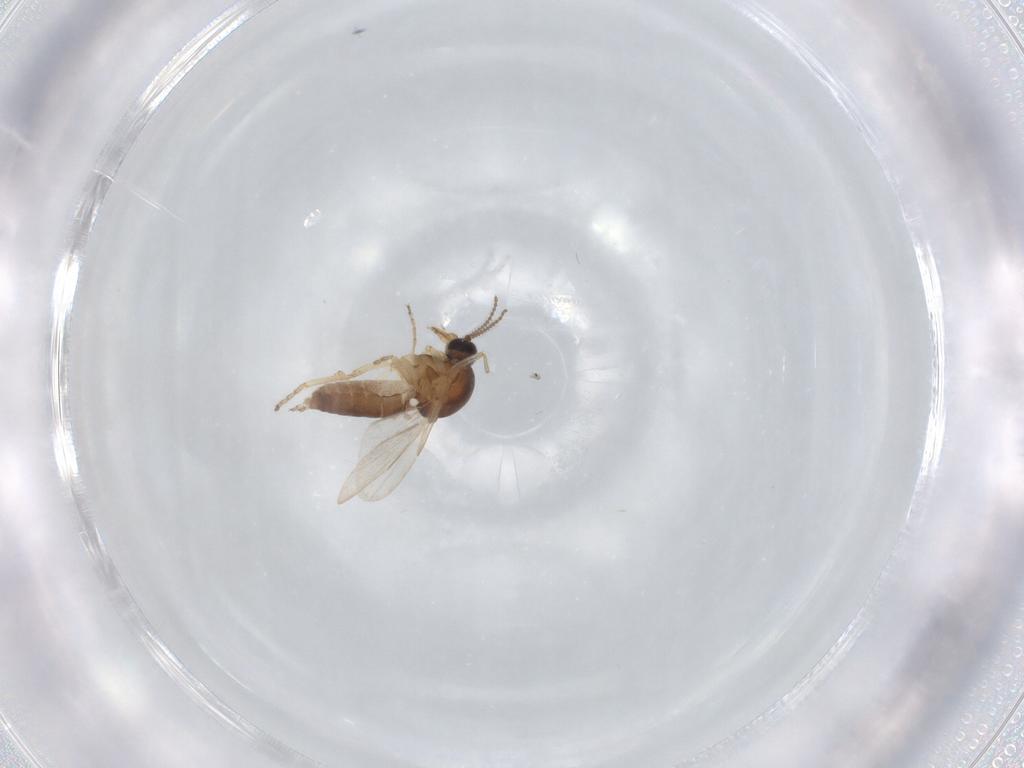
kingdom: Animalia
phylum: Arthropoda
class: Insecta
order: Diptera
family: Ceratopogonidae
